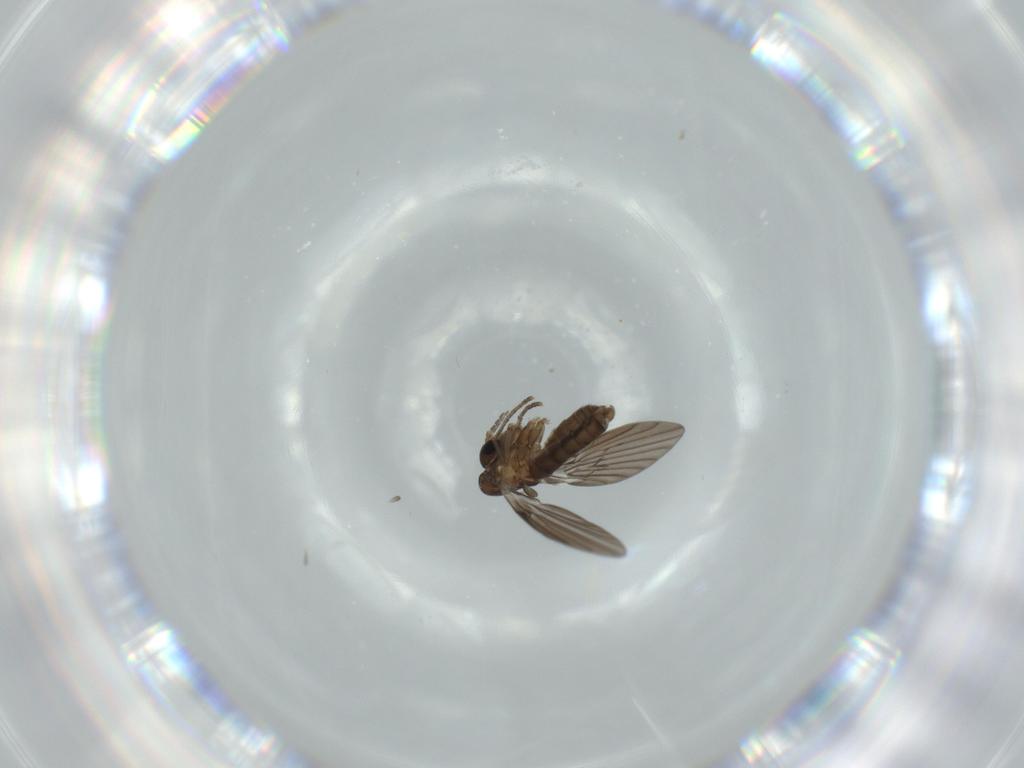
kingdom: Animalia
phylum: Arthropoda
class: Insecta
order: Diptera
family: Psychodidae
